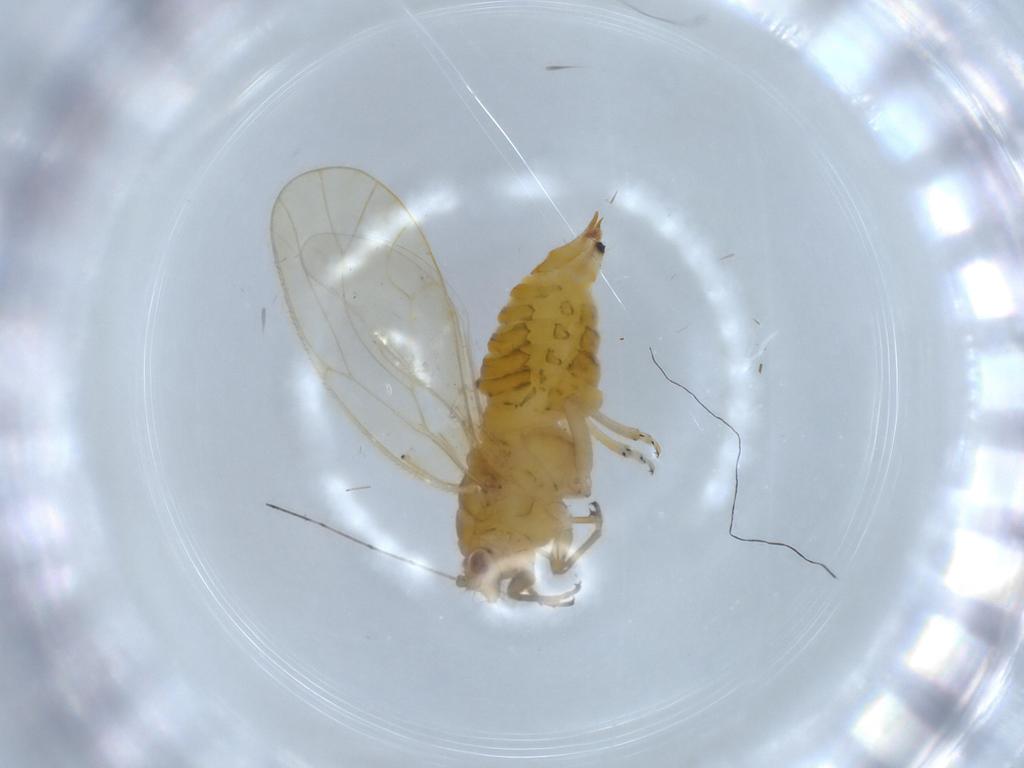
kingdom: Animalia
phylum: Arthropoda
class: Insecta
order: Hemiptera
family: Psyllidae
